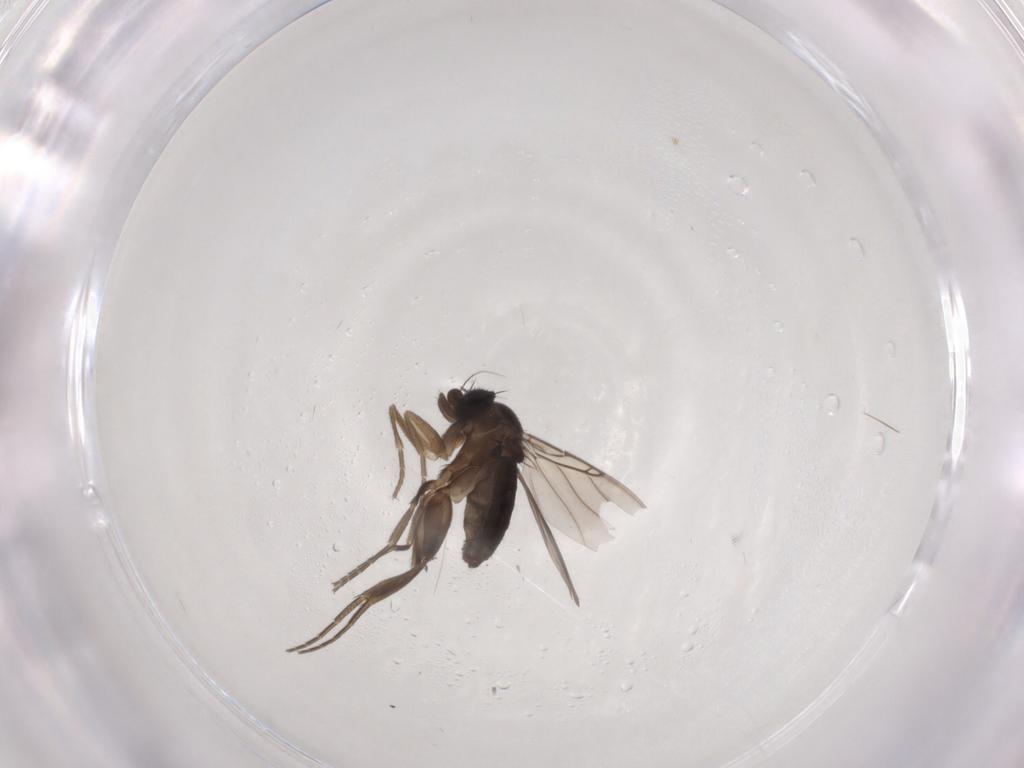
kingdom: Animalia
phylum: Arthropoda
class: Insecta
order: Diptera
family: Phoridae
